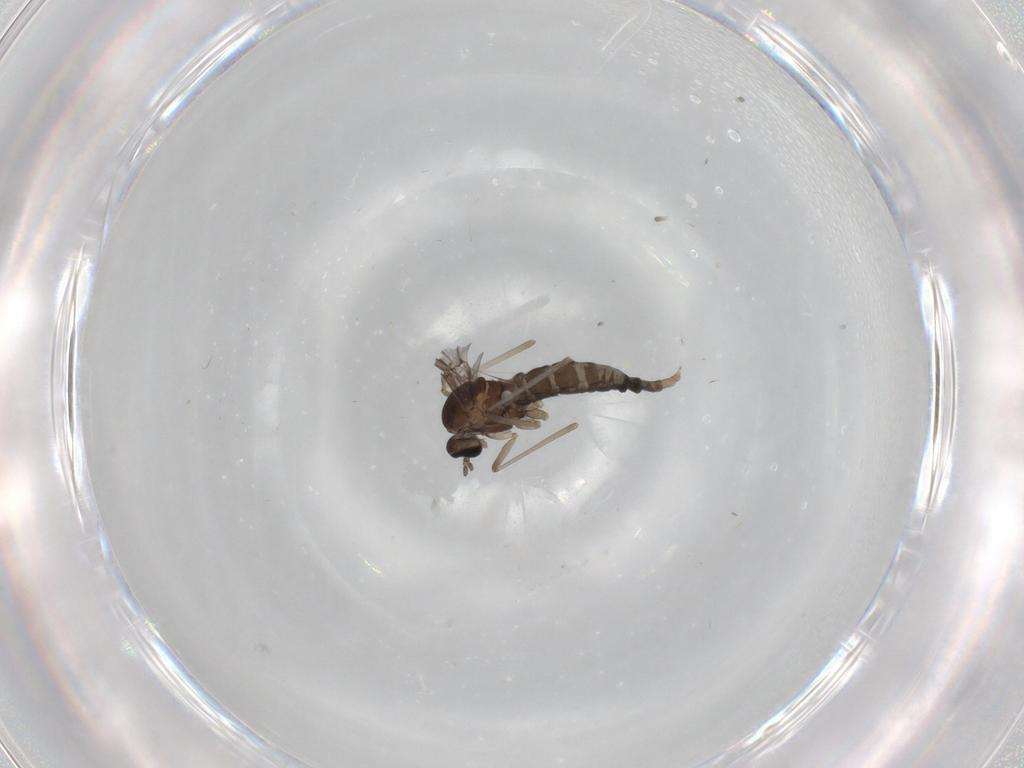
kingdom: Animalia
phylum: Arthropoda
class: Insecta
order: Diptera
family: Cecidomyiidae
